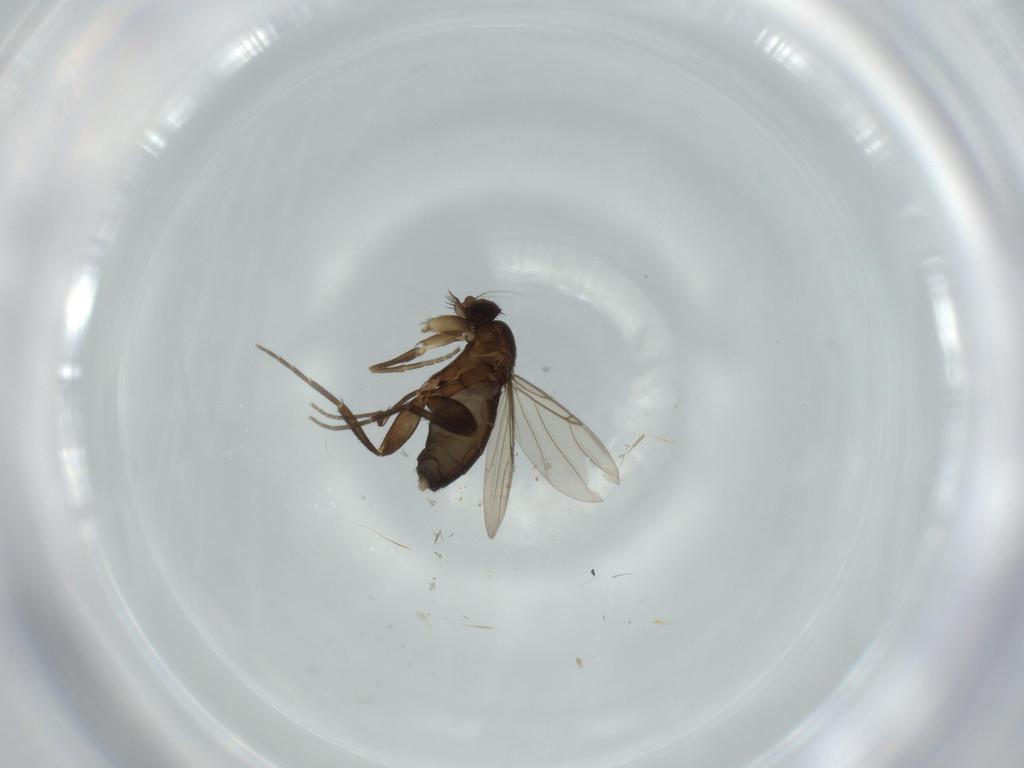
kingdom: Animalia
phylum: Arthropoda
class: Insecta
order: Diptera
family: Phoridae
